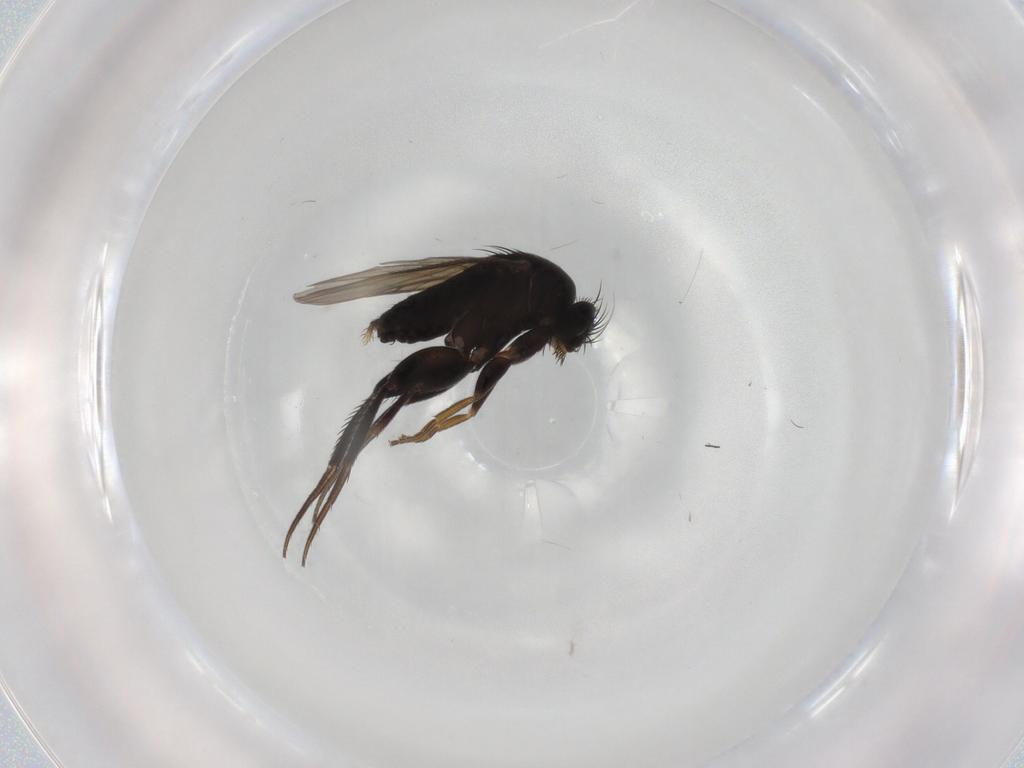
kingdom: Animalia
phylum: Arthropoda
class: Insecta
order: Diptera
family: Phoridae
